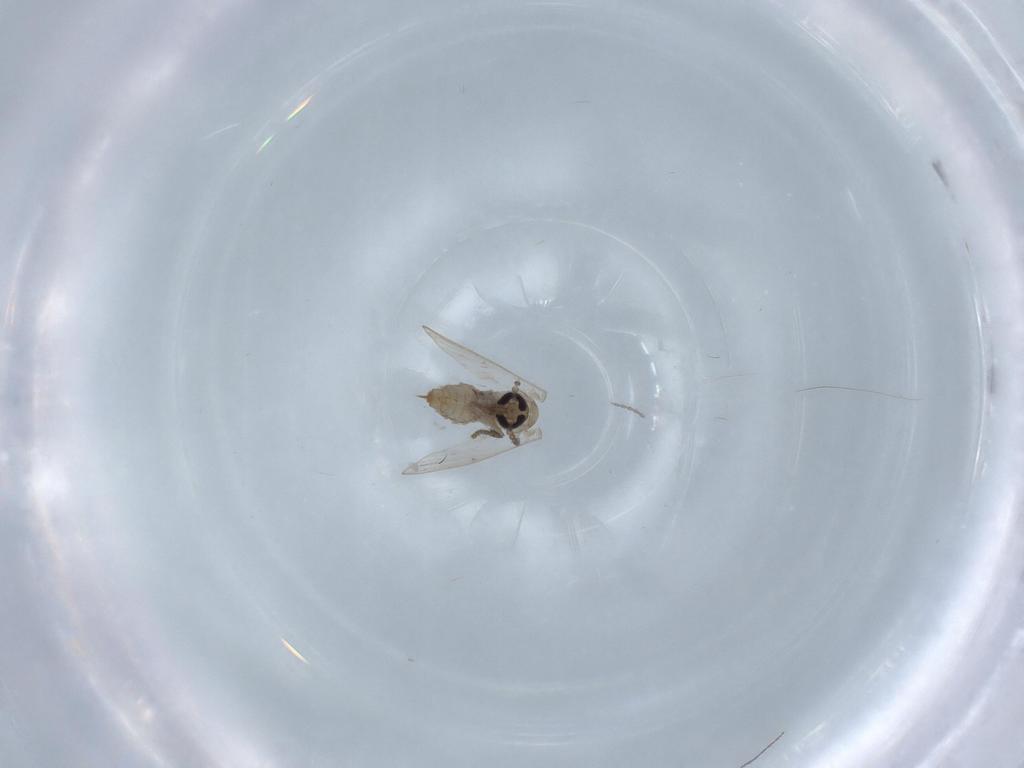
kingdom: Animalia
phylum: Arthropoda
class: Insecta
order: Diptera
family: Psychodidae
